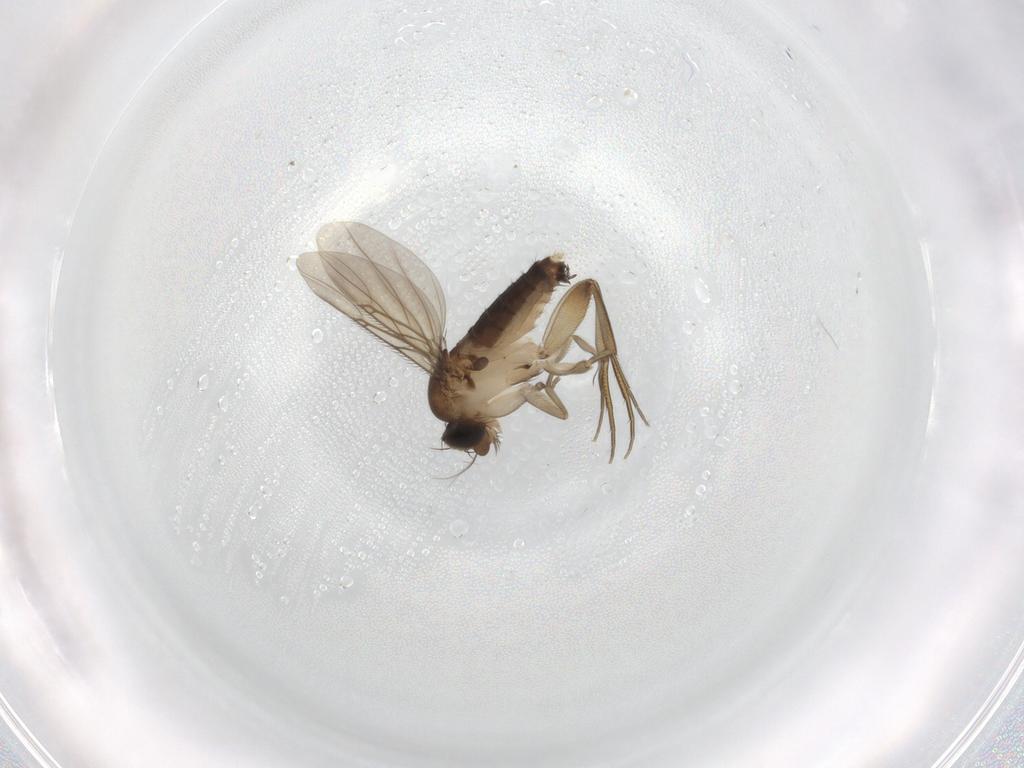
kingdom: Animalia
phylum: Arthropoda
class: Insecta
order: Diptera
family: Phoridae
